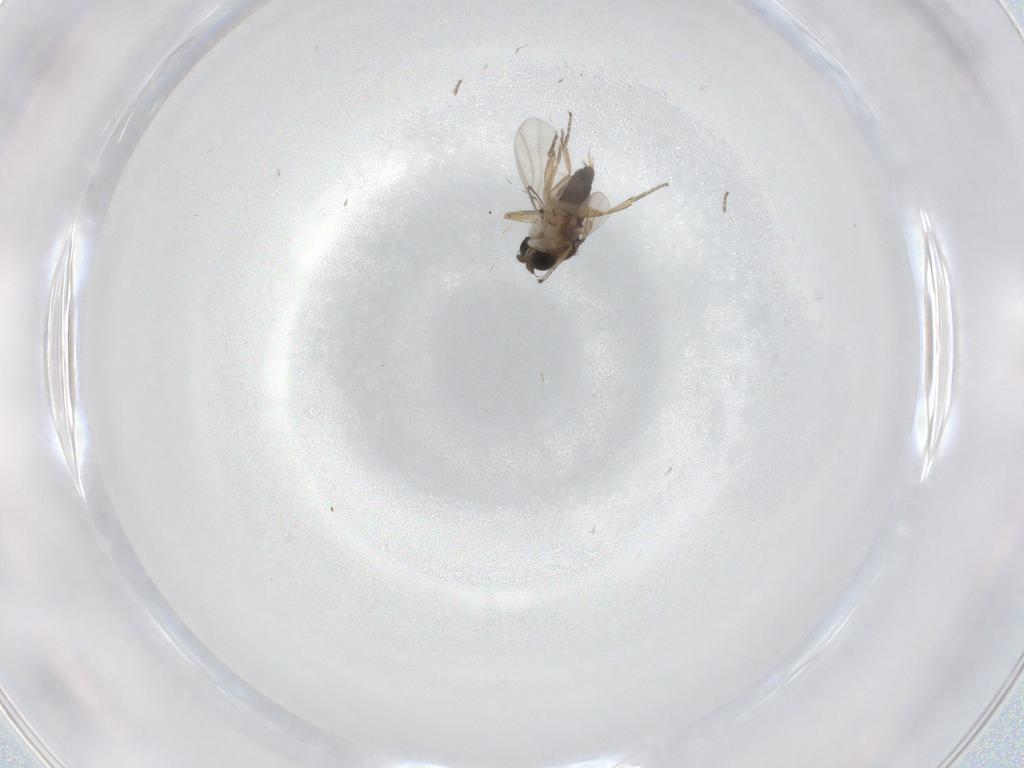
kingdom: Animalia
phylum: Arthropoda
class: Insecta
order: Diptera
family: Phoridae
